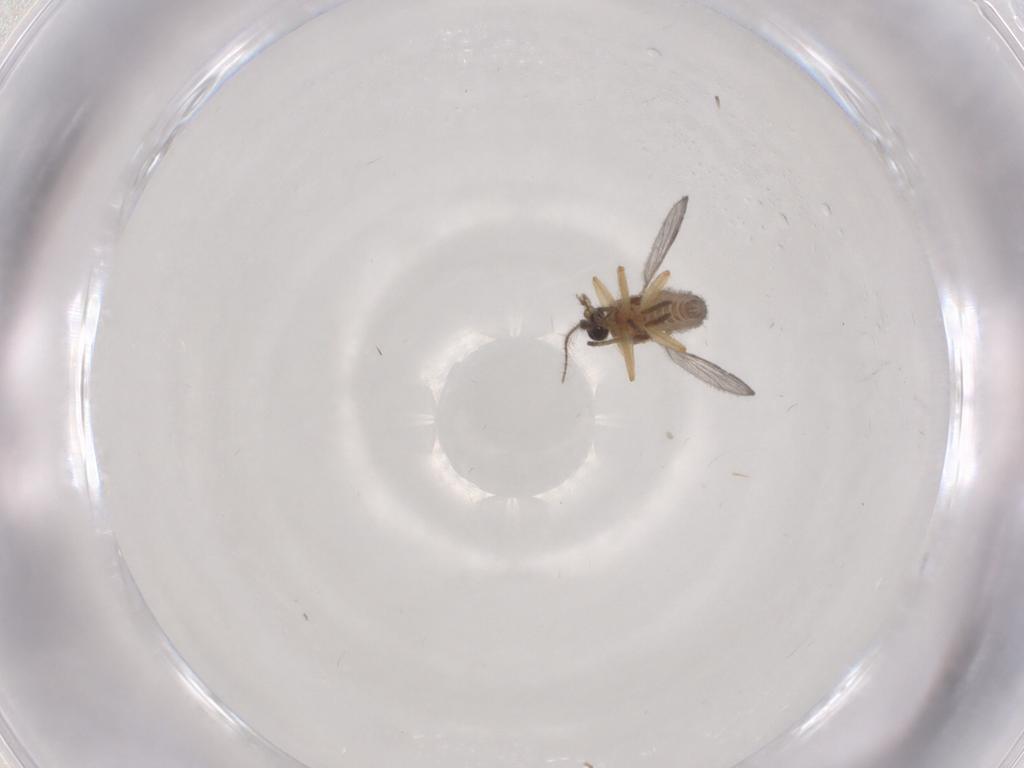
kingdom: Animalia
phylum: Arthropoda
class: Insecta
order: Diptera
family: Ceratopogonidae
